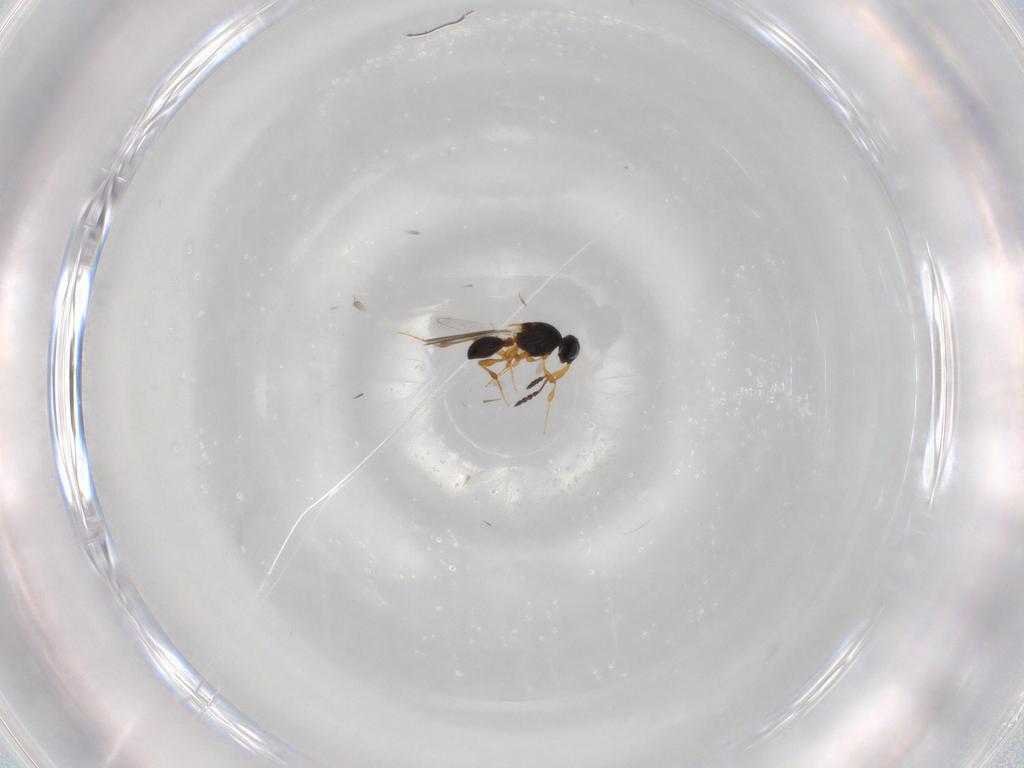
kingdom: Animalia
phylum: Arthropoda
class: Insecta
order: Hymenoptera
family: Platygastridae
